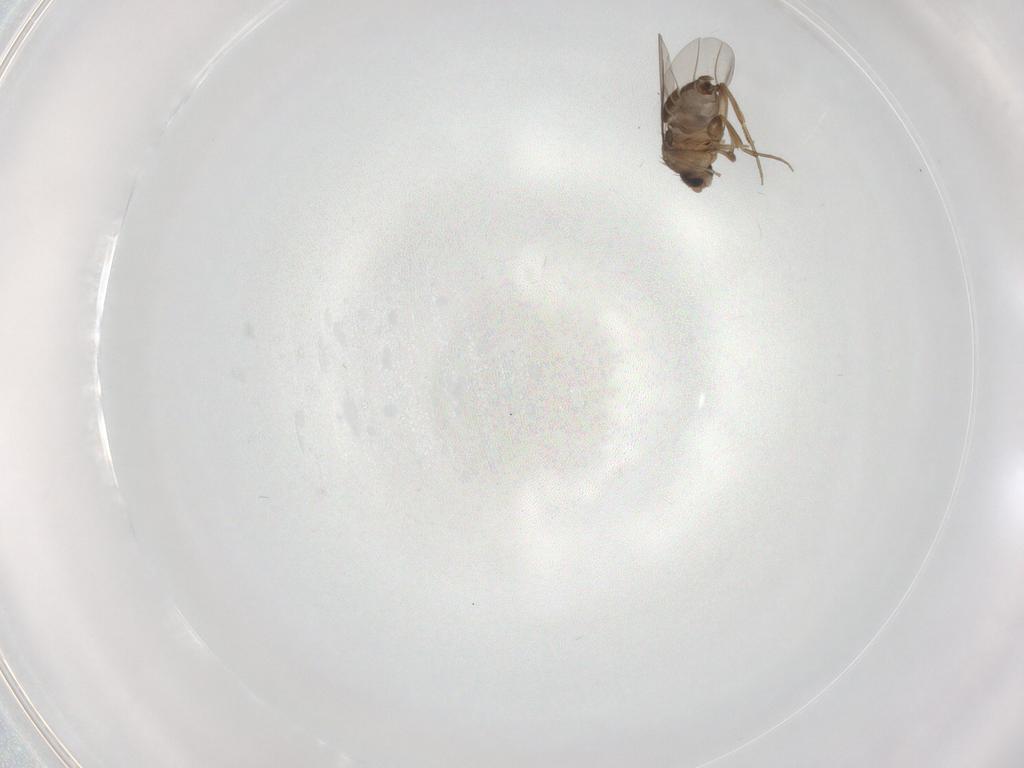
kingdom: Animalia
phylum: Arthropoda
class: Insecta
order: Diptera
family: Phoridae
